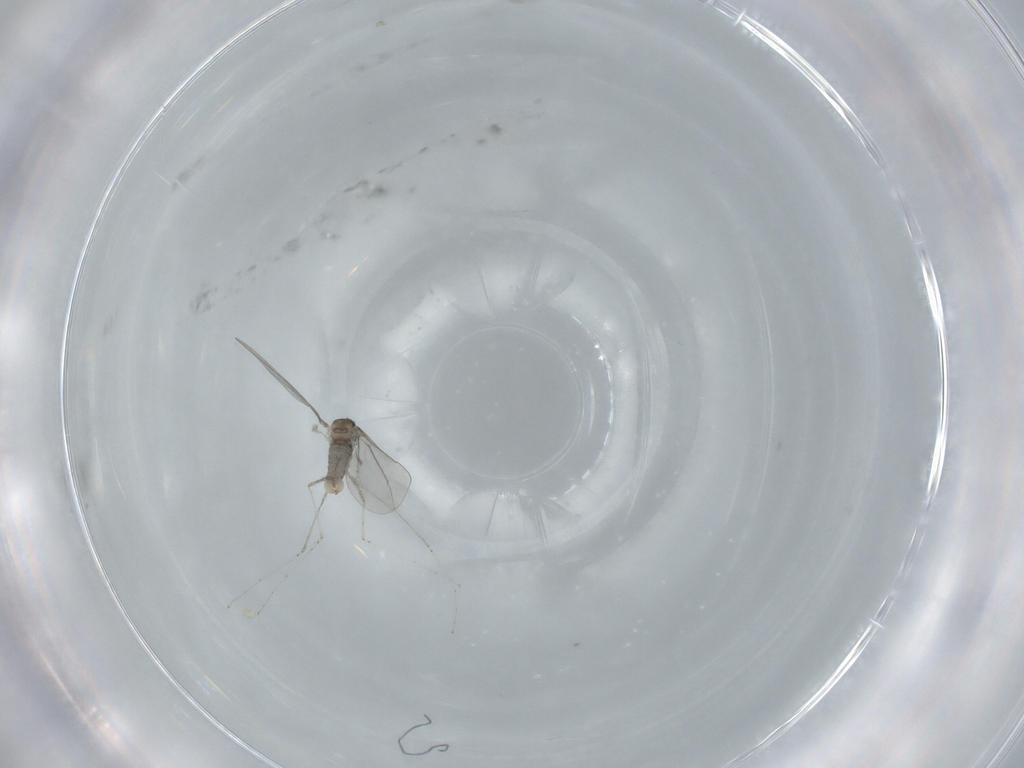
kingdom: Animalia
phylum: Arthropoda
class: Insecta
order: Diptera
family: Cecidomyiidae
